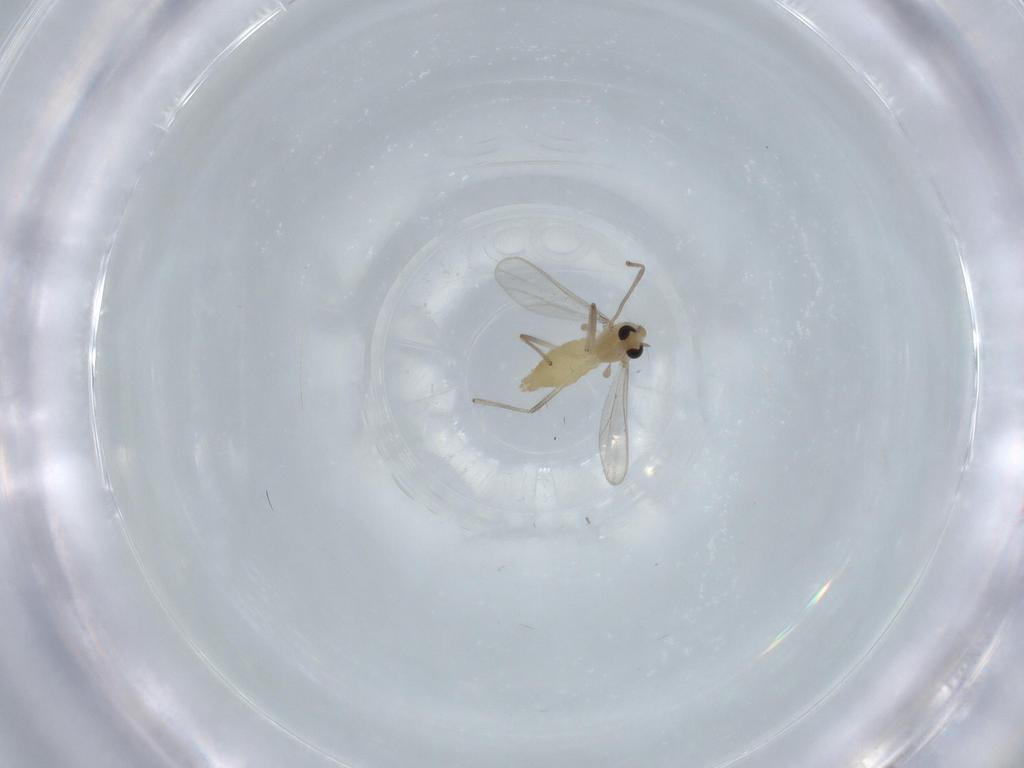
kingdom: Animalia
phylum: Arthropoda
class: Insecta
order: Diptera
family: Chironomidae
